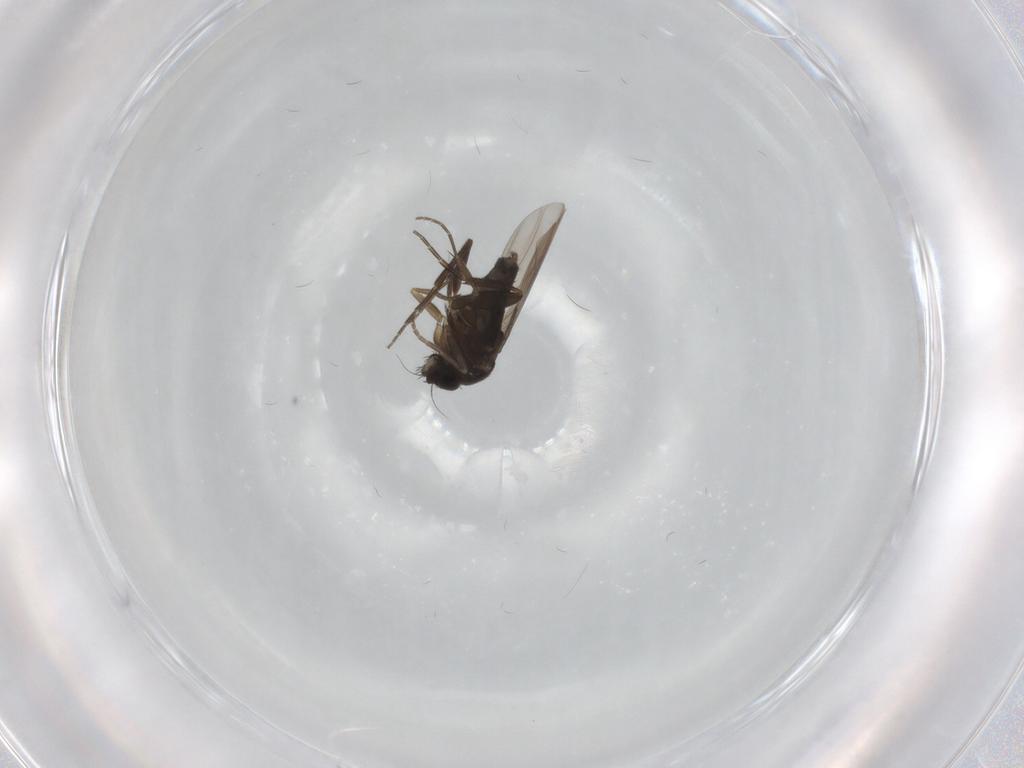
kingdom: Animalia
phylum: Arthropoda
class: Insecta
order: Diptera
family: Phoridae
